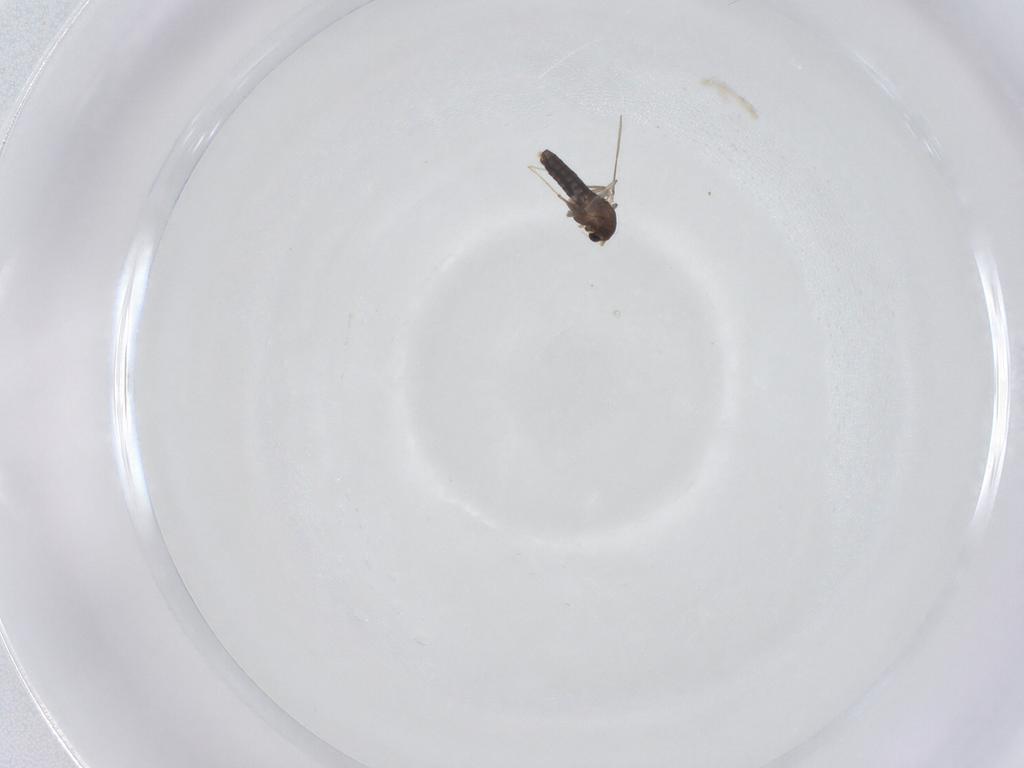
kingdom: Animalia
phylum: Arthropoda
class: Insecta
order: Diptera
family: Chironomidae
